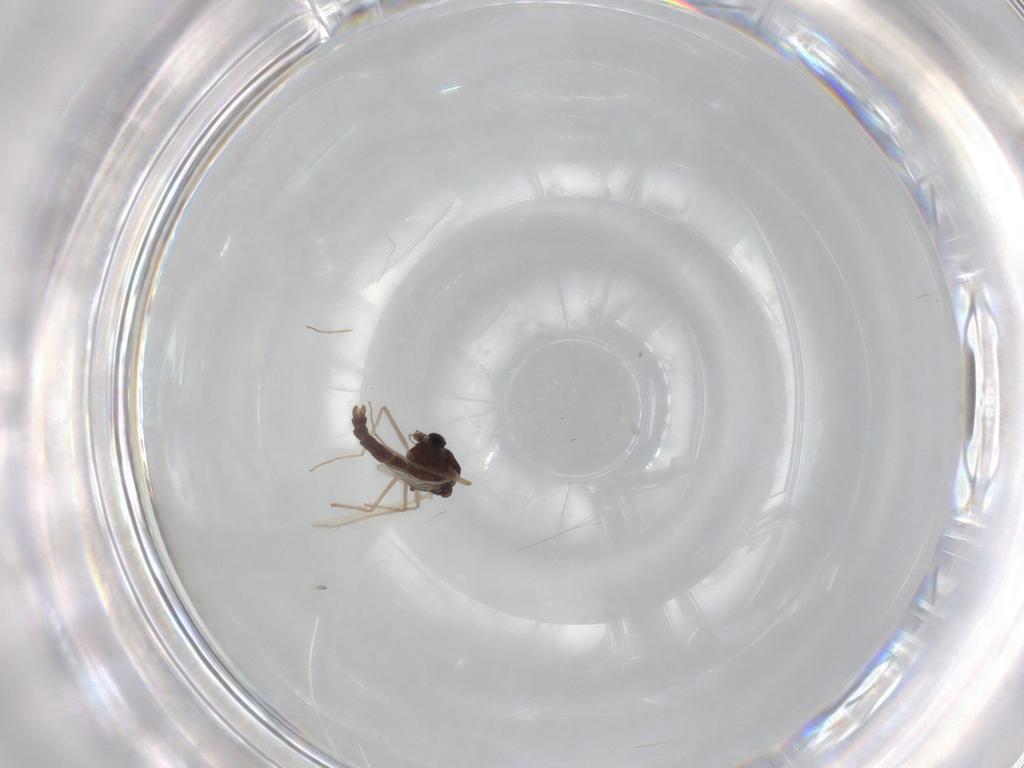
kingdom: Animalia
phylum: Arthropoda
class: Insecta
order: Diptera
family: Chironomidae
